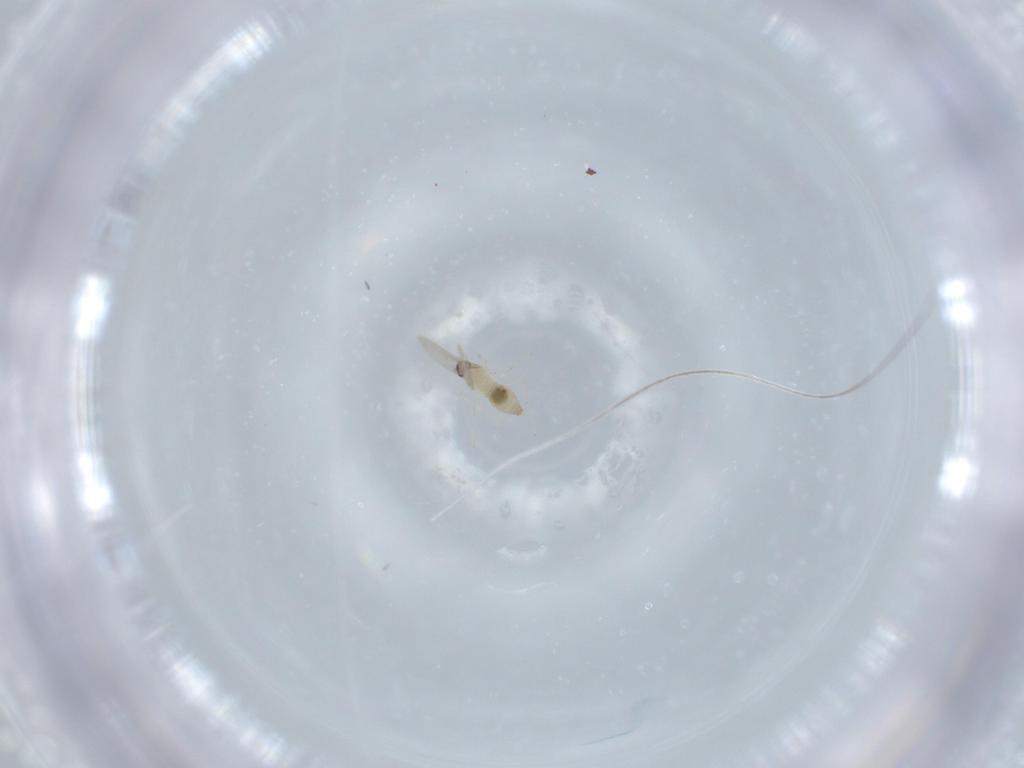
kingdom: Animalia
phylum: Arthropoda
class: Insecta
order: Diptera
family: Cecidomyiidae
